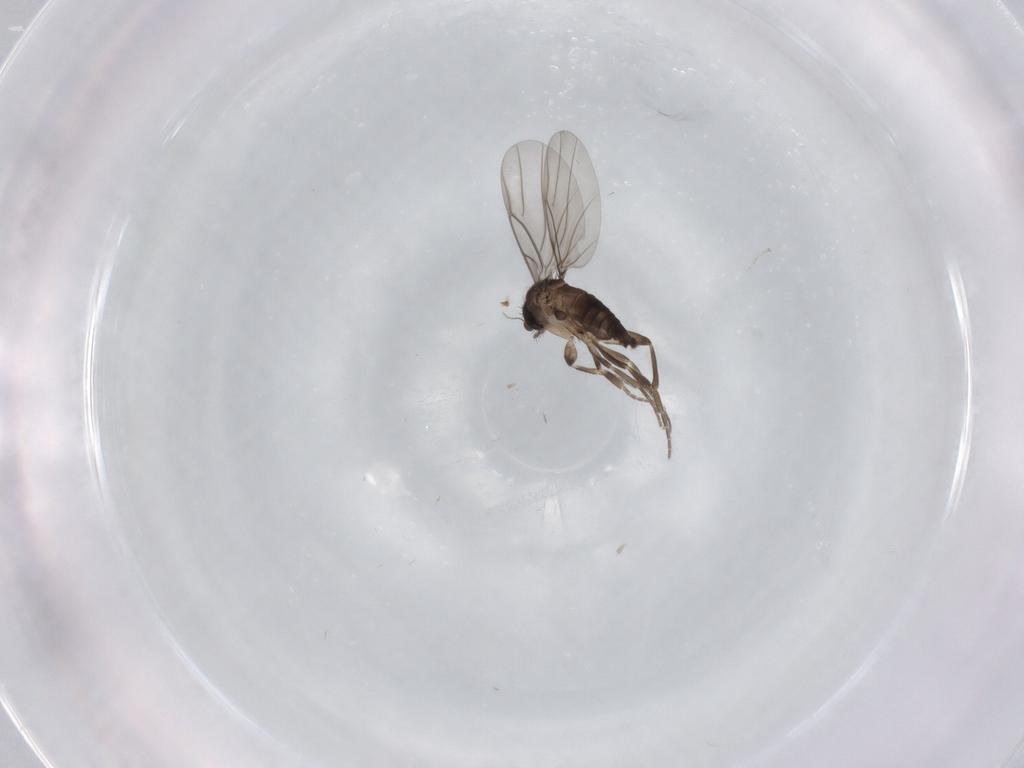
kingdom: Animalia
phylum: Arthropoda
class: Insecta
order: Diptera
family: Phoridae
